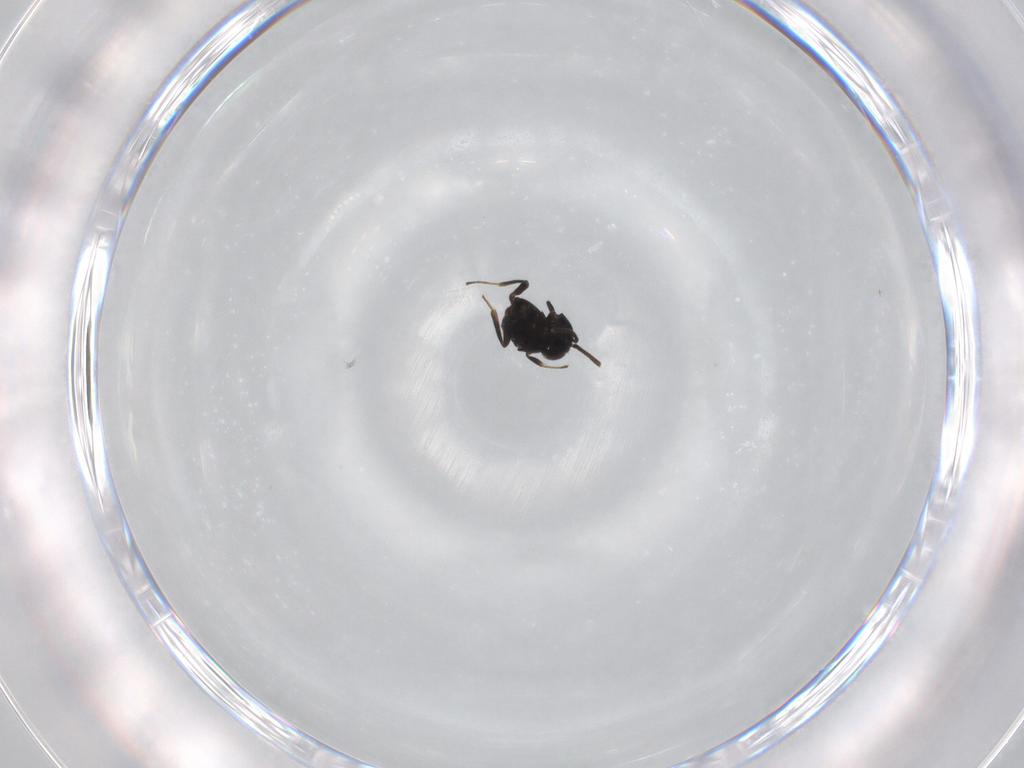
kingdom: Animalia
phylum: Arthropoda
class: Insecta
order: Hymenoptera
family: Encyrtidae
